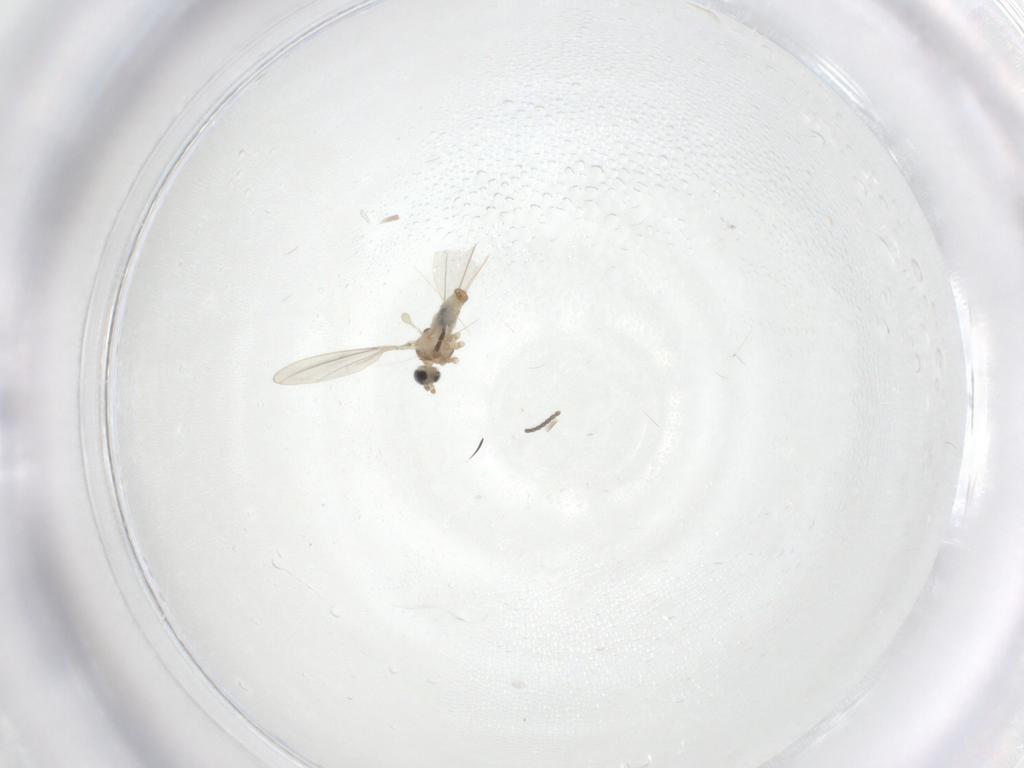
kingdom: Animalia
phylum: Arthropoda
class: Insecta
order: Diptera
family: Cecidomyiidae
